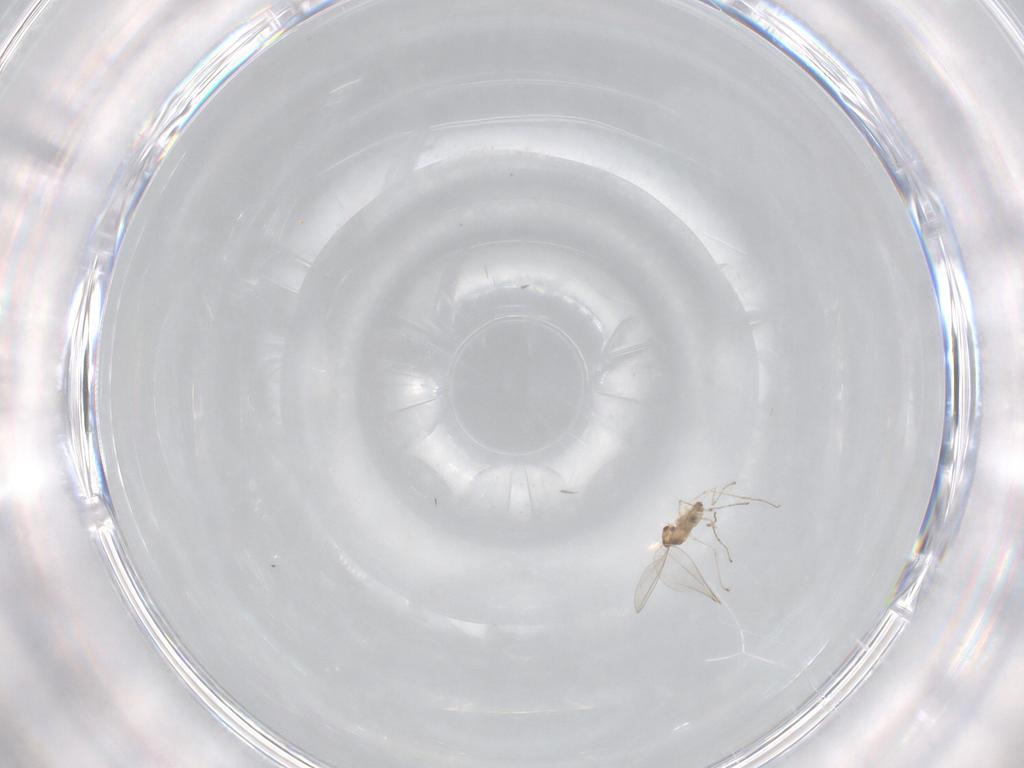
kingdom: Animalia
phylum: Arthropoda
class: Insecta
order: Diptera
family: Cecidomyiidae
